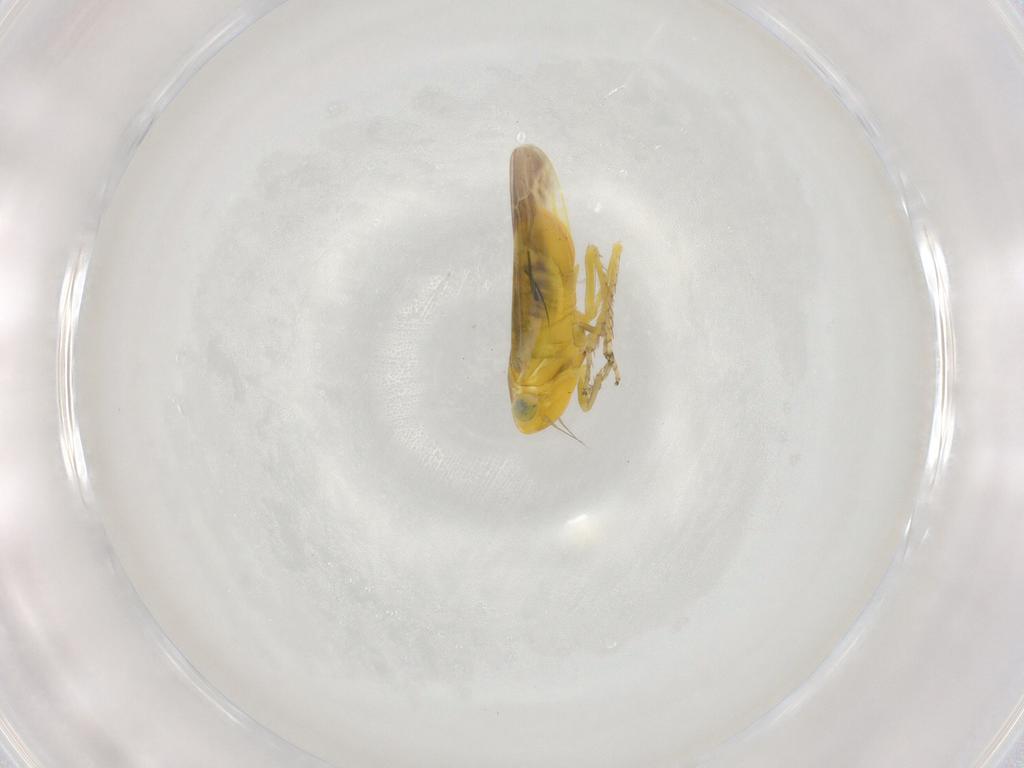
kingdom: Animalia
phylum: Arthropoda
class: Insecta
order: Hemiptera
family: Cicadellidae
